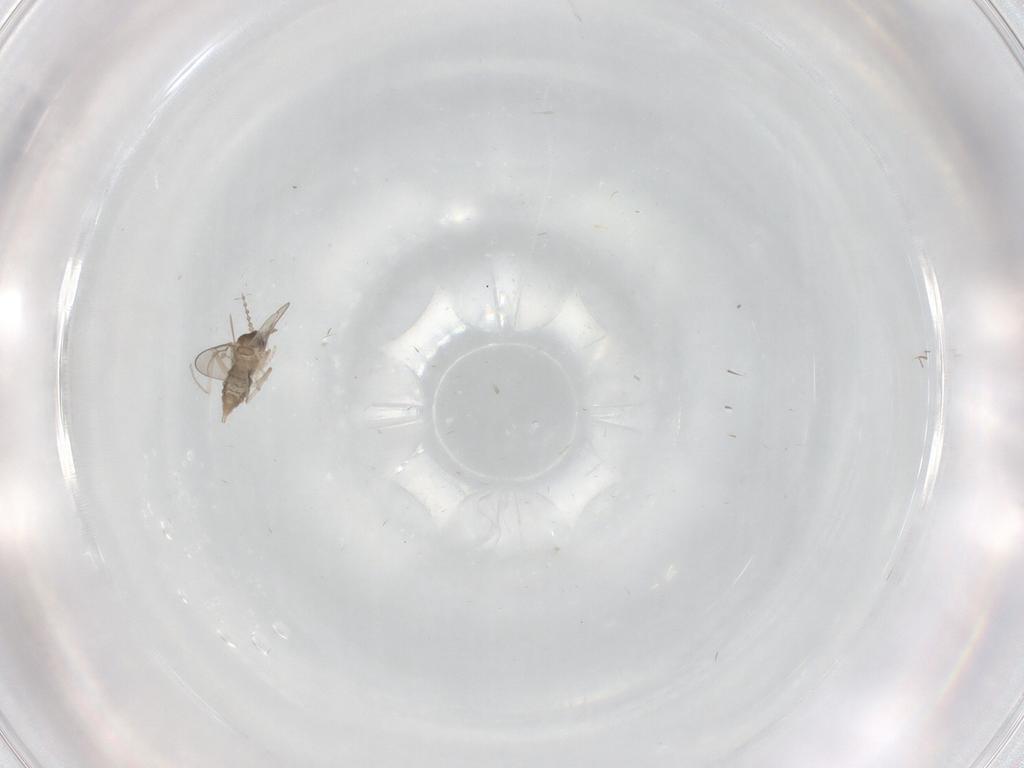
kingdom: Animalia
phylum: Arthropoda
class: Insecta
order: Diptera
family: Cecidomyiidae
